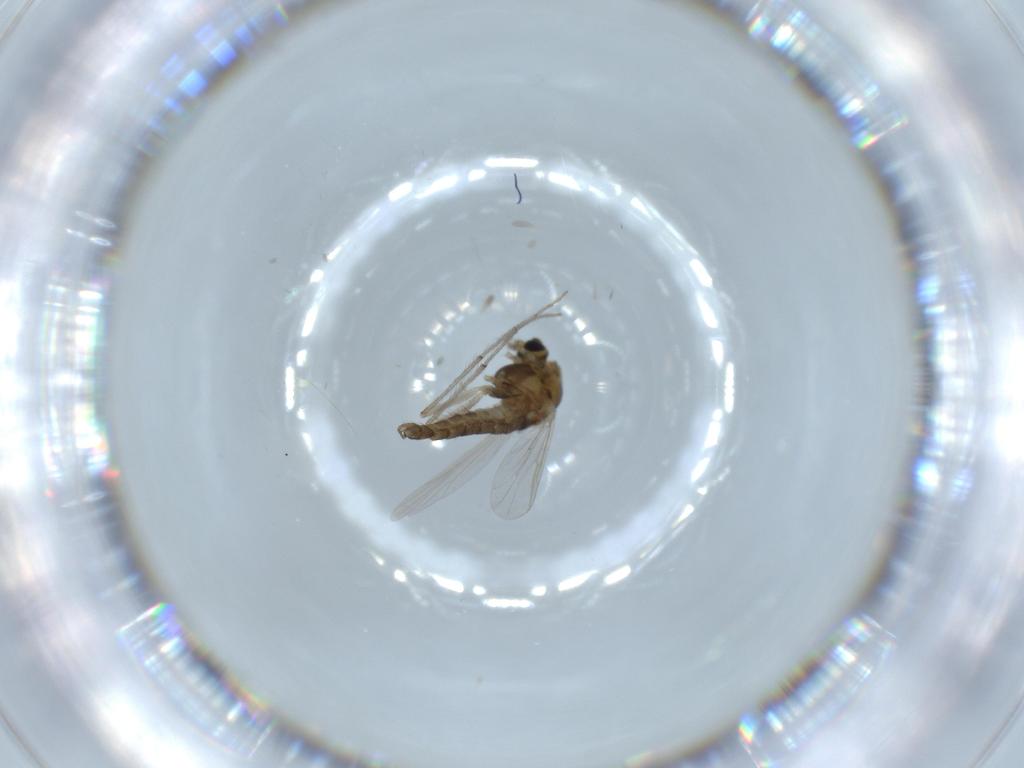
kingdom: Animalia
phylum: Arthropoda
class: Insecta
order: Diptera
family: Chironomidae
